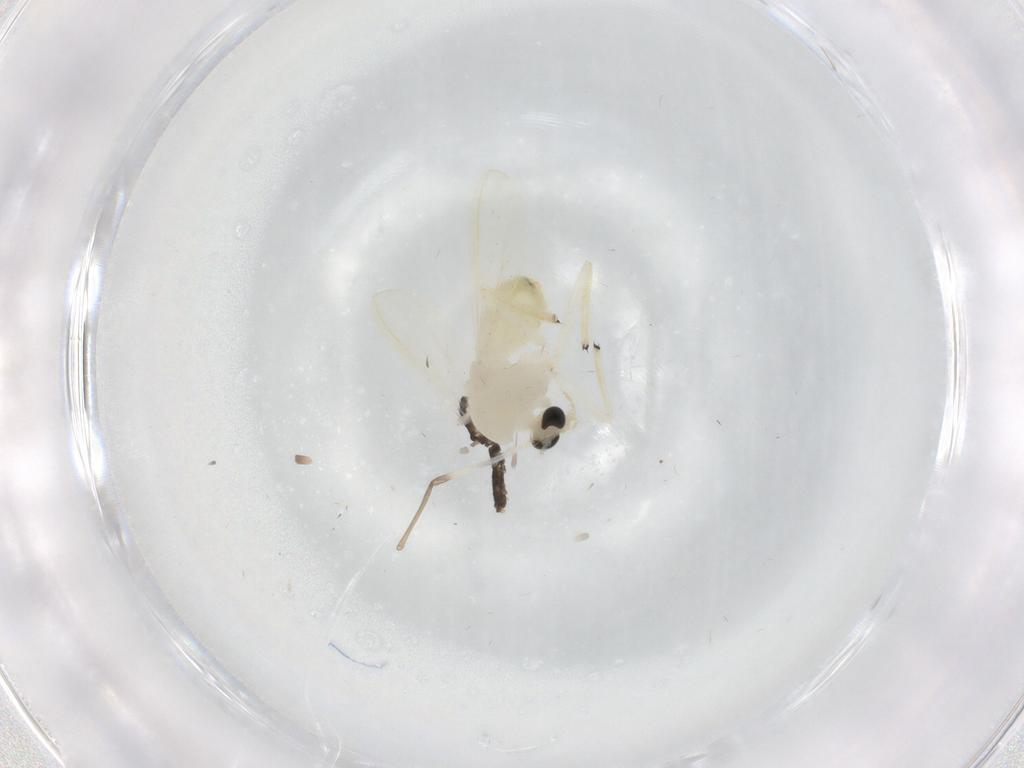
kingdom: Animalia
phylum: Arthropoda
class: Insecta
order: Diptera
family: Chironomidae
